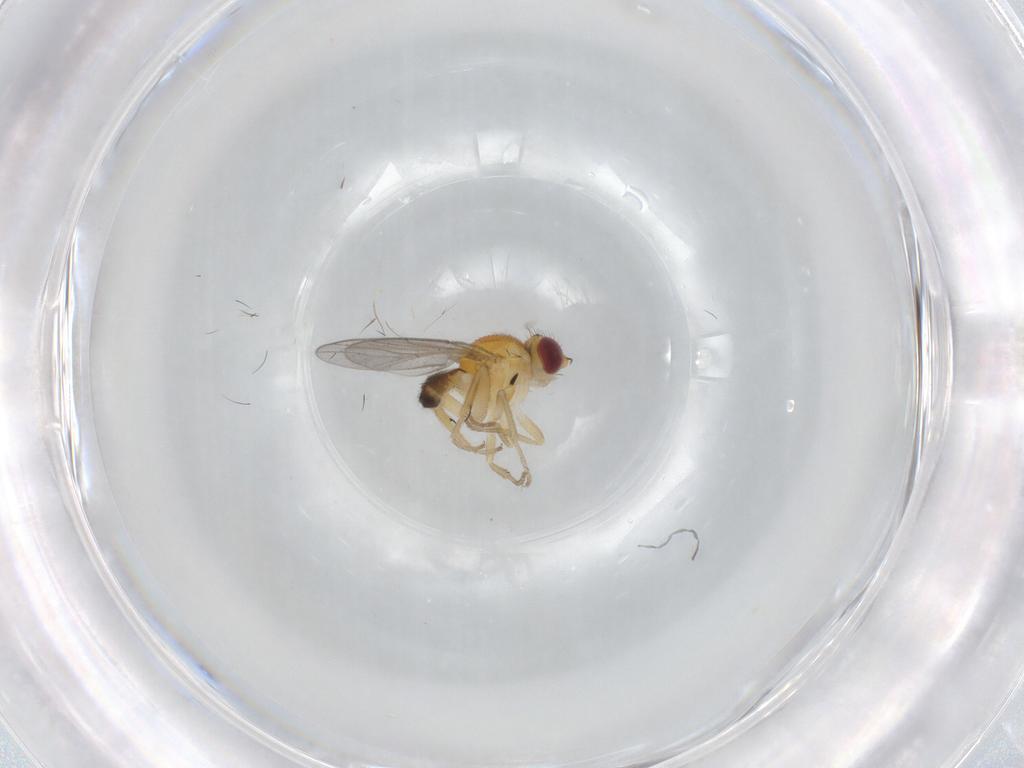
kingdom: Animalia
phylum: Arthropoda
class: Insecta
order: Diptera
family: Chloropidae
